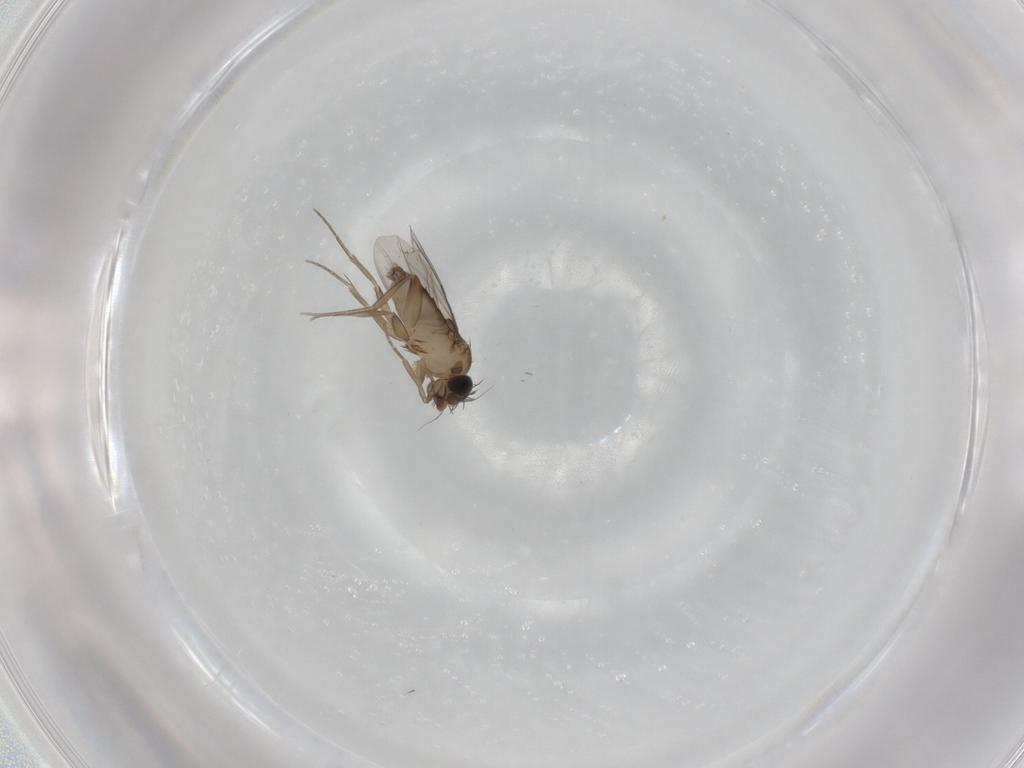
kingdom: Animalia
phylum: Arthropoda
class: Insecta
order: Diptera
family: Phoridae
